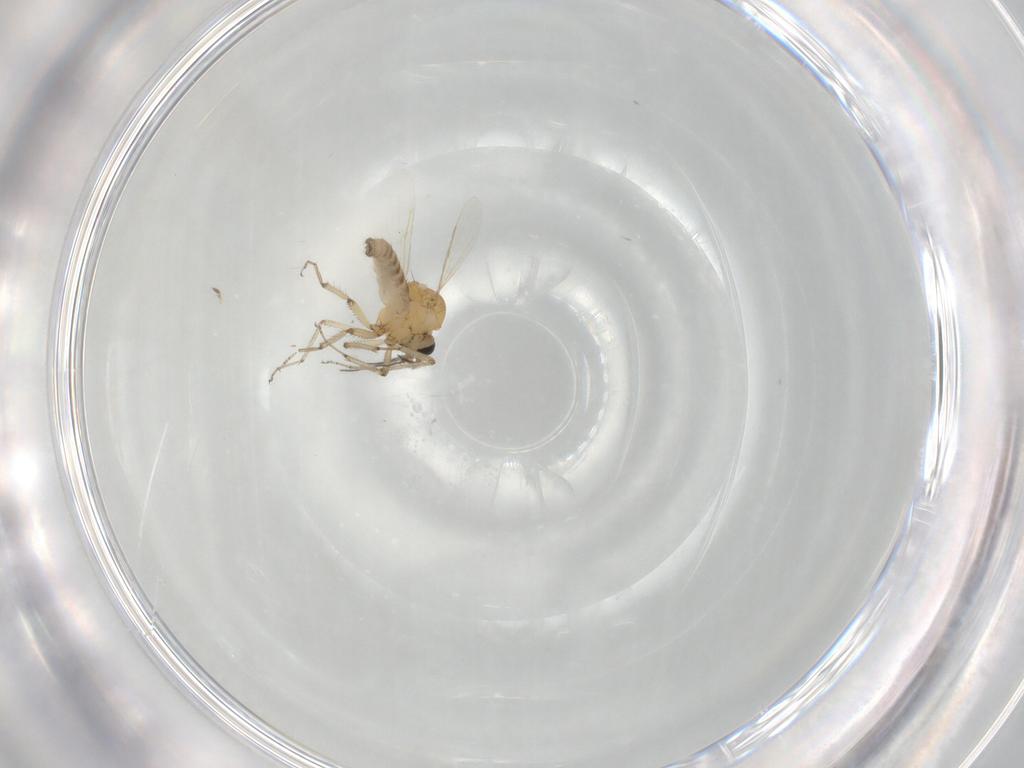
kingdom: Animalia
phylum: Arthropoda
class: Insecta
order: Diptera
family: Ceratopogonidae
